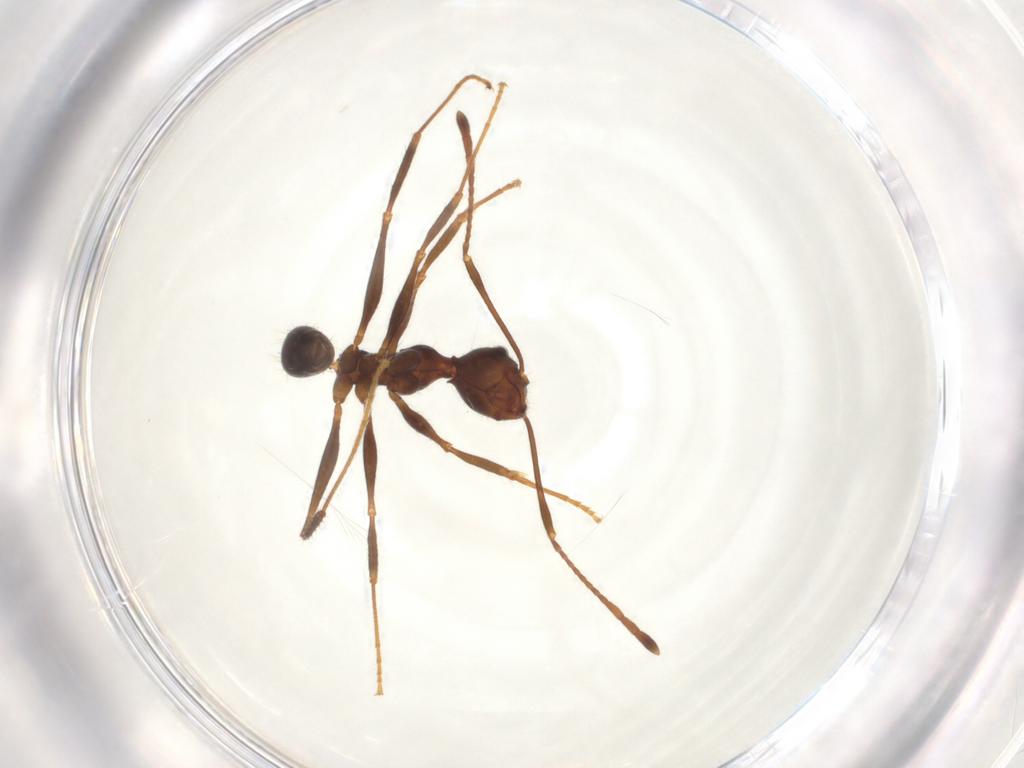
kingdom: Animalia
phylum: Arthropoda
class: Insecta
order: Hymenoptera
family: Formicidae
